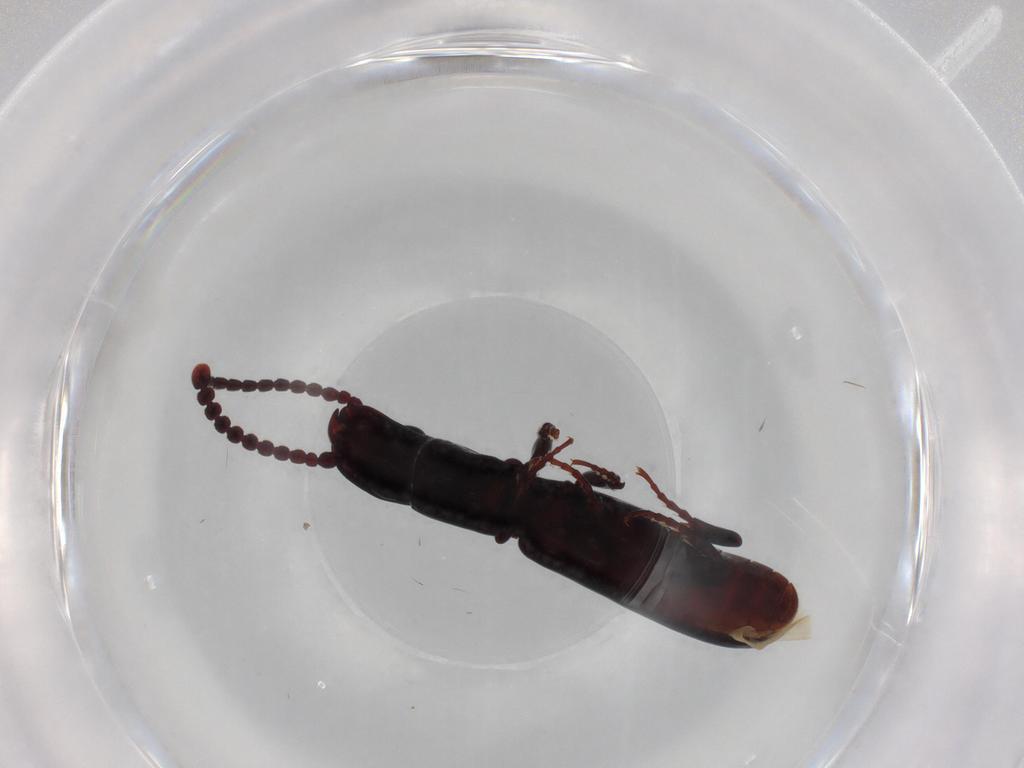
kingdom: Animalia
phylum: Arthropoda
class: Insecta
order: Coleoptera
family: Passandridae
